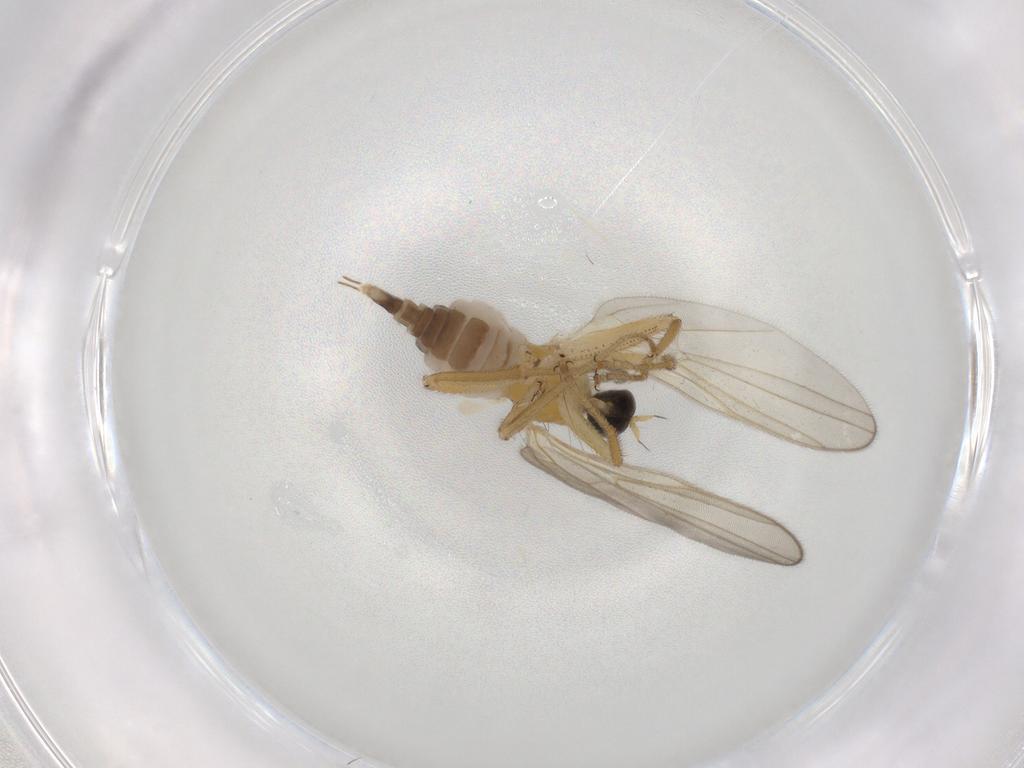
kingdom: Animalia
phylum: Arthropoda
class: Insecta
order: Diptera
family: Hybotidae
